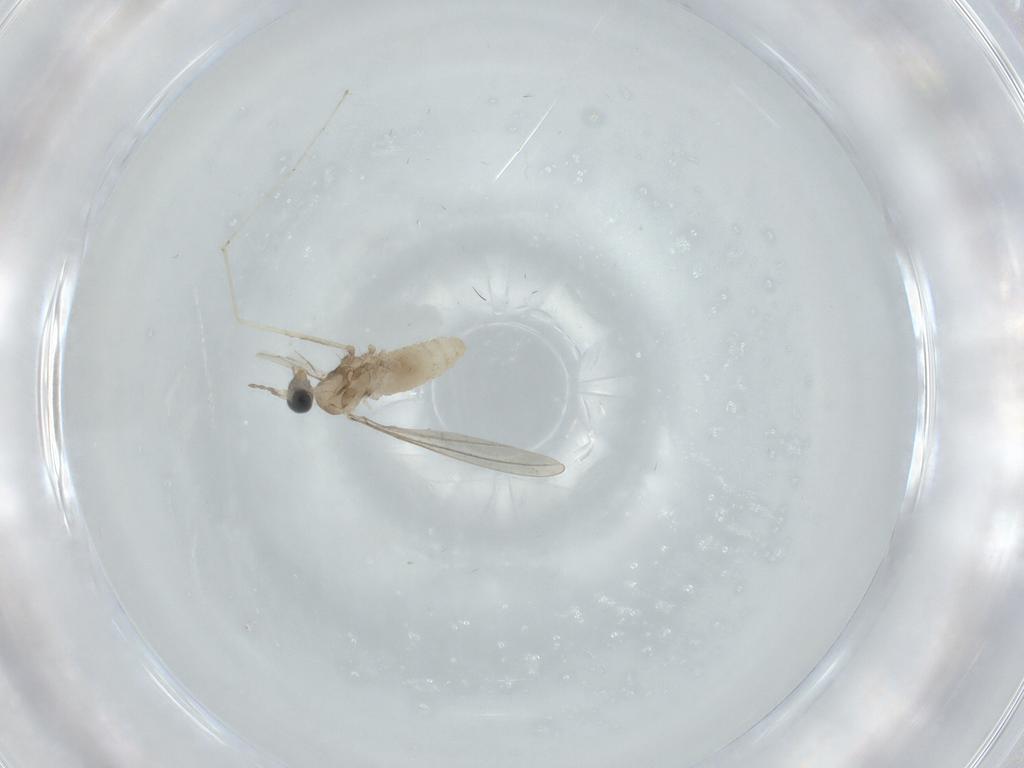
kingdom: Animalia
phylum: Arthropoda
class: Insecta
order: Diptera
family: Cecidomyiidae
